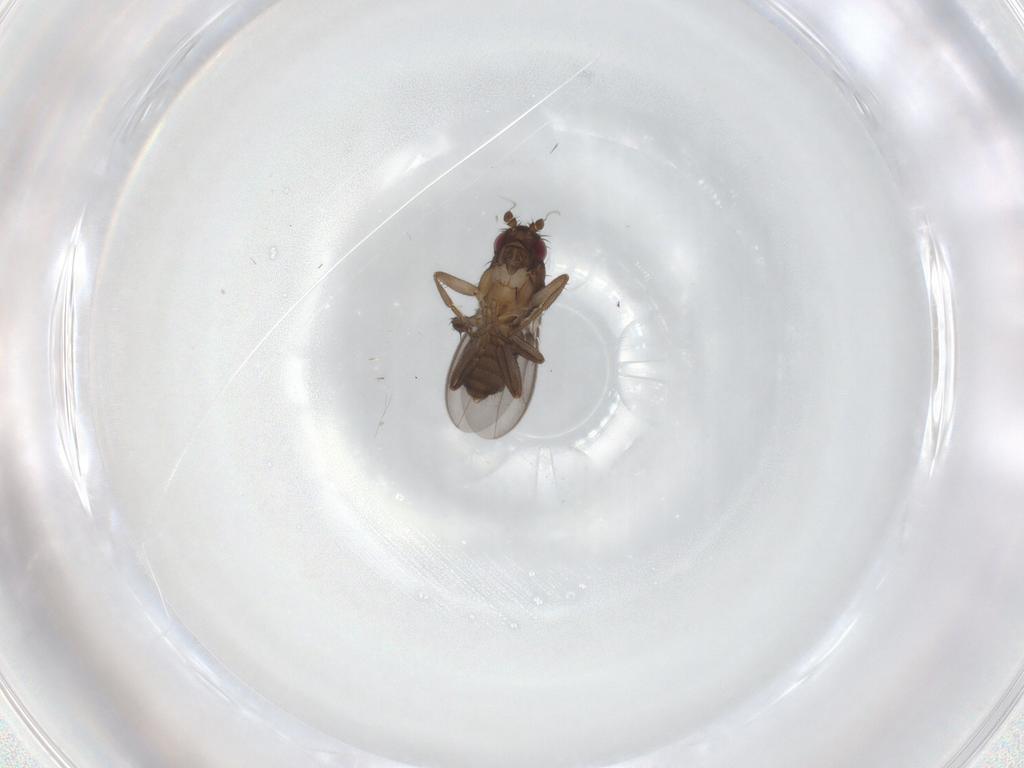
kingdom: Animalia
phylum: Arthropoda
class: Insecta
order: Diptera
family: Sphaeroceridae
